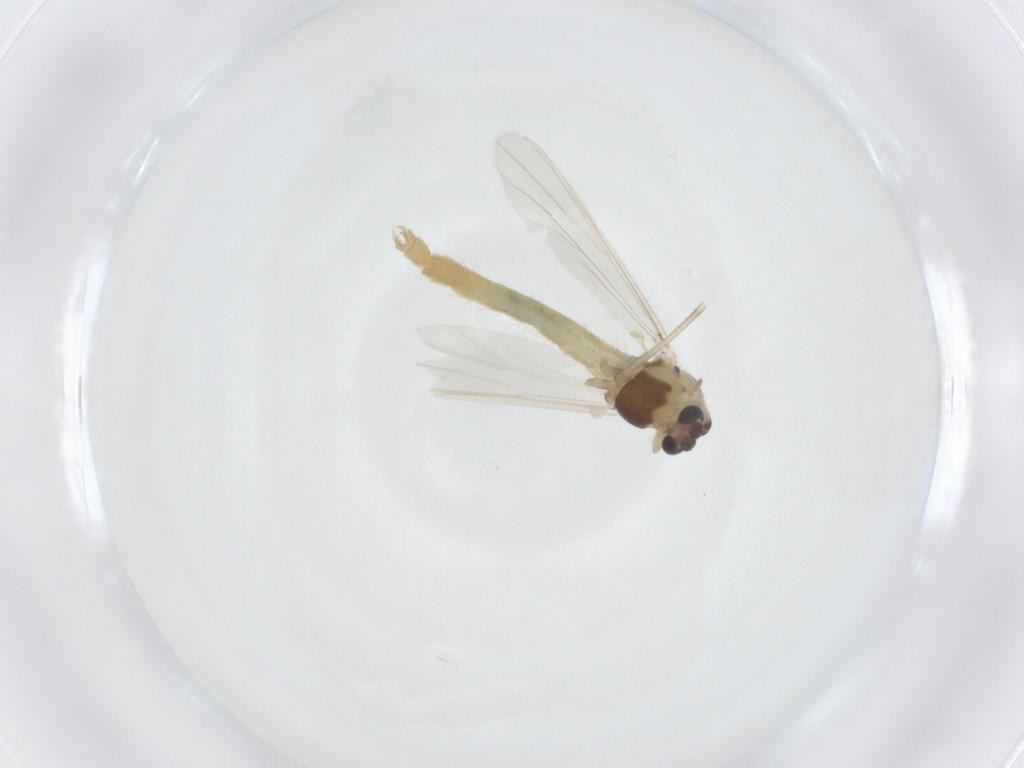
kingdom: Animalia
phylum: Arthropoda
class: Insecta
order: Diptera
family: Chironomidae
